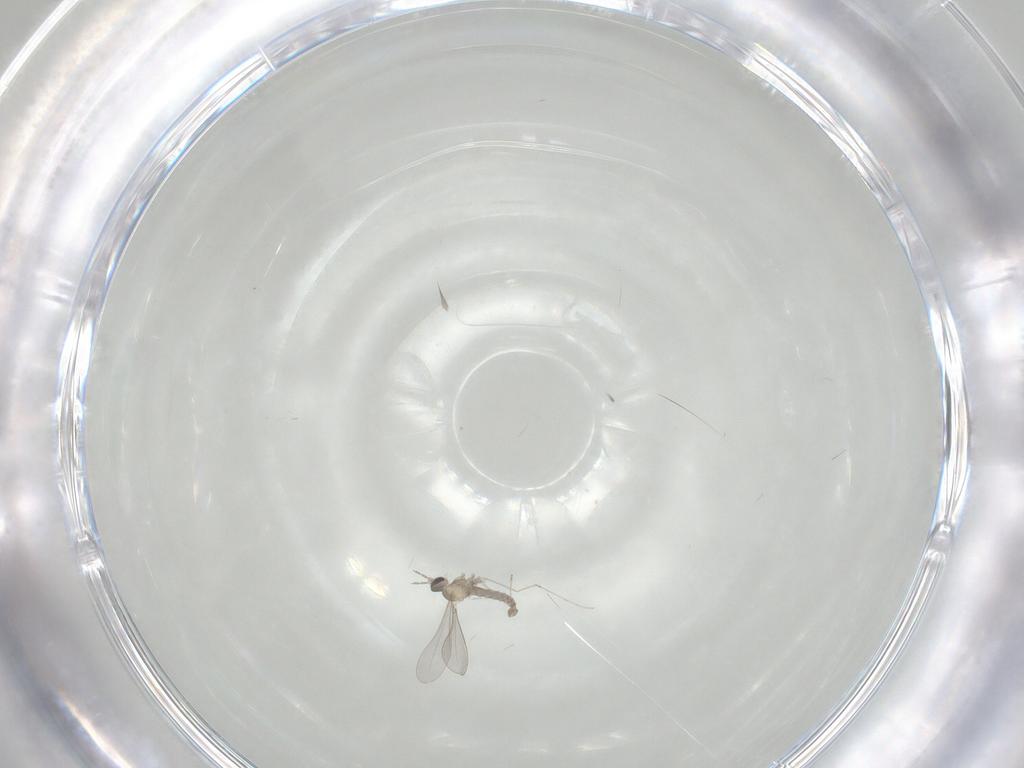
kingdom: Animalia
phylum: Arthropoda
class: Insecta
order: Diptera
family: Cecidomyiidae
